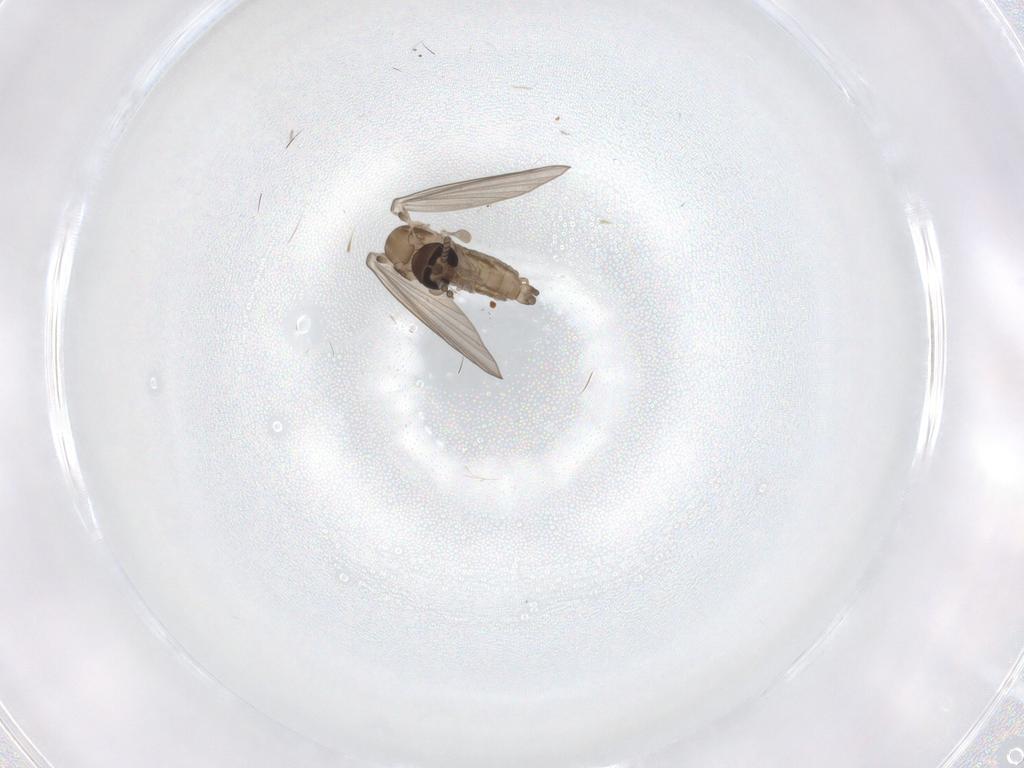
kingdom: Animalia
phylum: Arthropoda
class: Insecta
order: Diptera
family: Psychodidae
